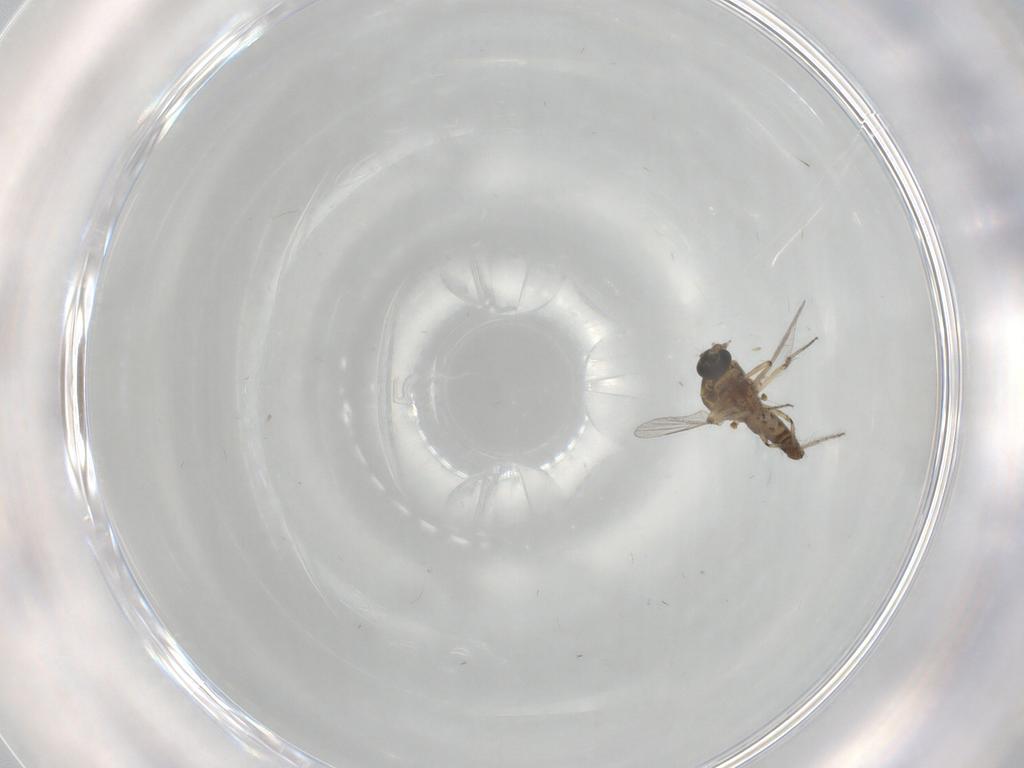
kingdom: Animalia
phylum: Arthropoda
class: Insecta
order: Diptera
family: Ceratopogonidae
